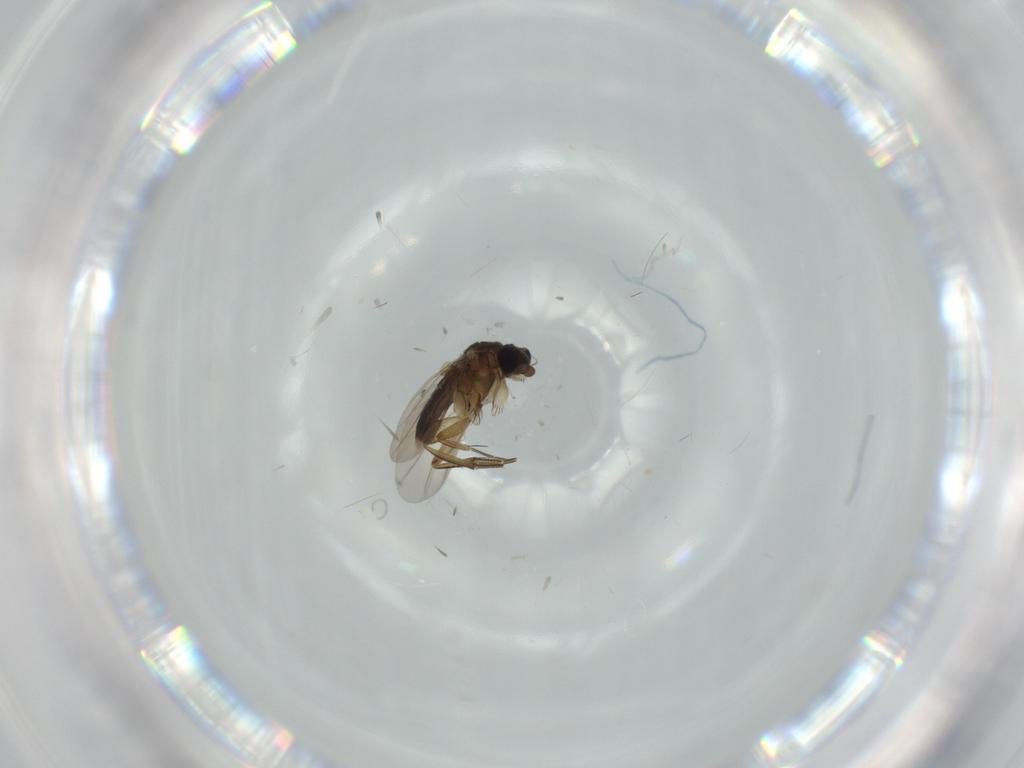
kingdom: Animalia
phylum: Arthropoda
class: Insecta
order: Diptera
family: Phoridae
